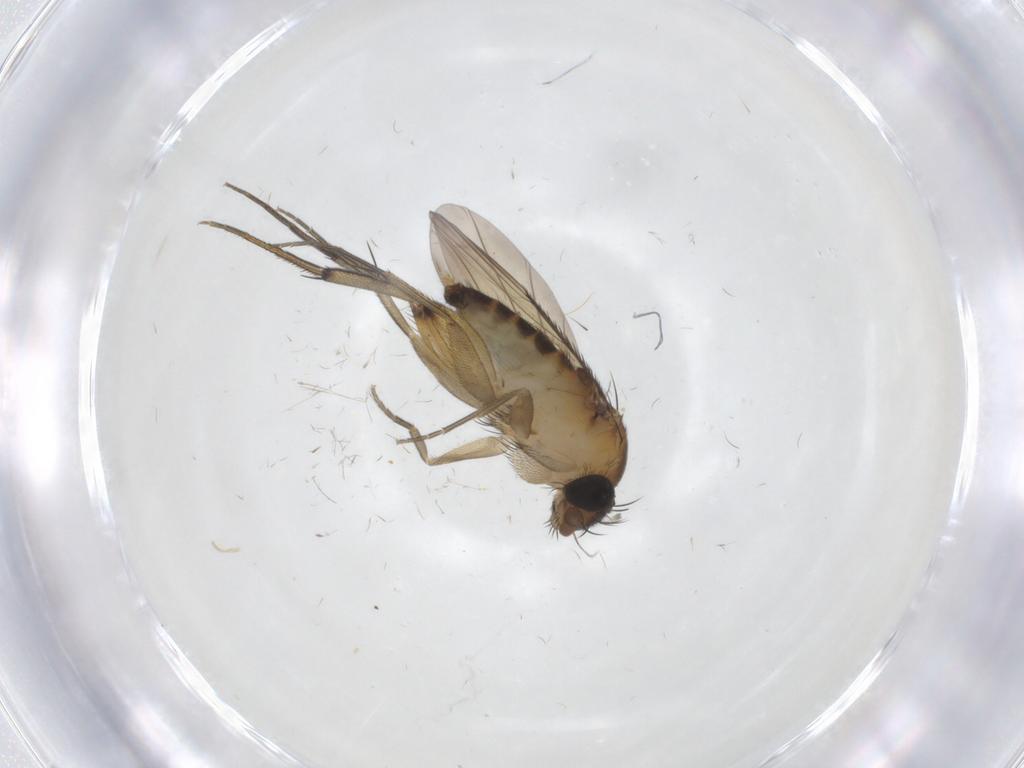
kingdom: Animalia
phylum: Arthropoda
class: Insecta
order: Diptera
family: Phoridae
